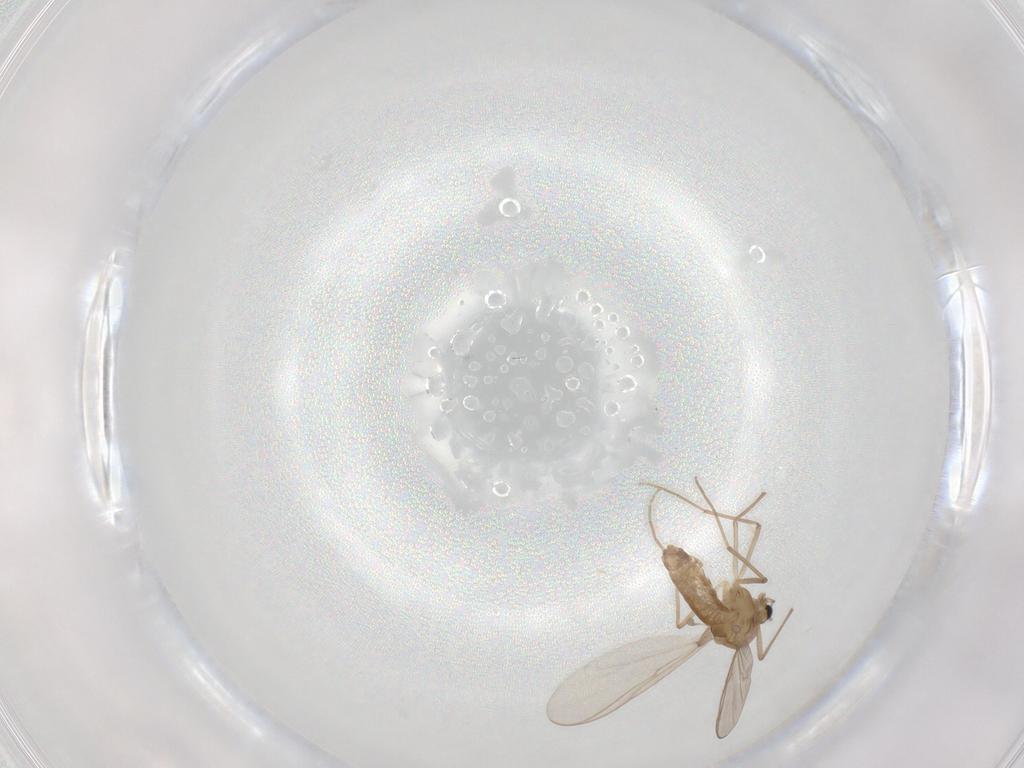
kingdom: Animalia
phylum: Arthropoda
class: Insecta
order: Diptera
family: Chironomidae
